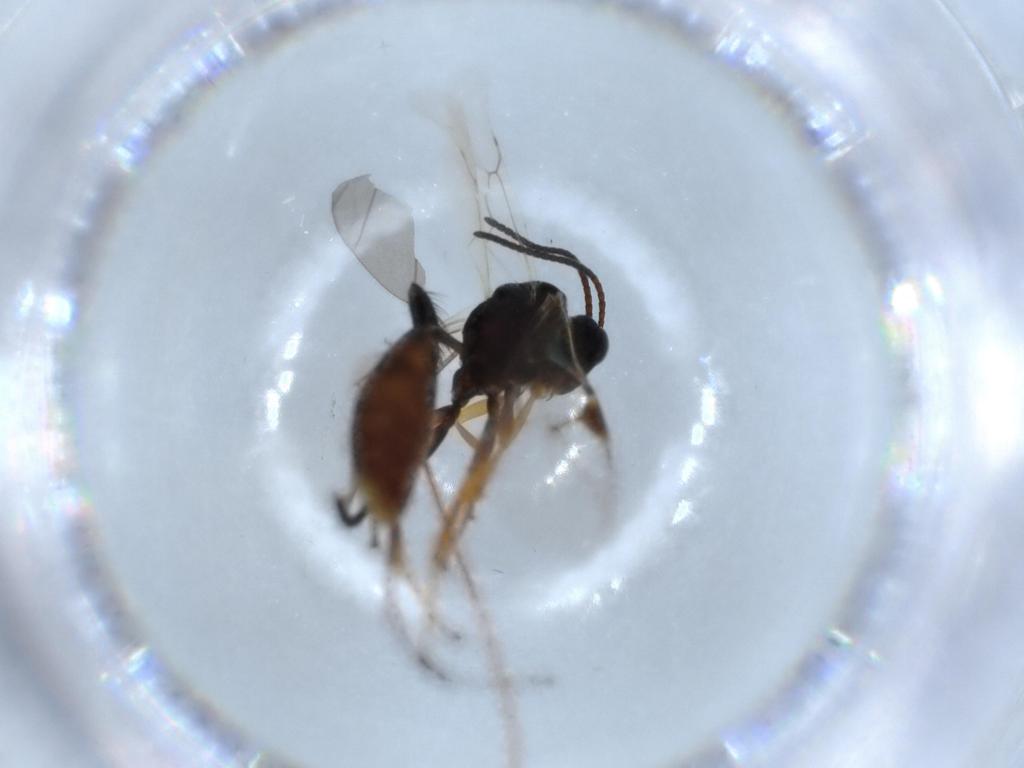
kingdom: Animalia
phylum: Arthropoda
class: Insecta
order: Hymenoptera
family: Ichneumonidae
